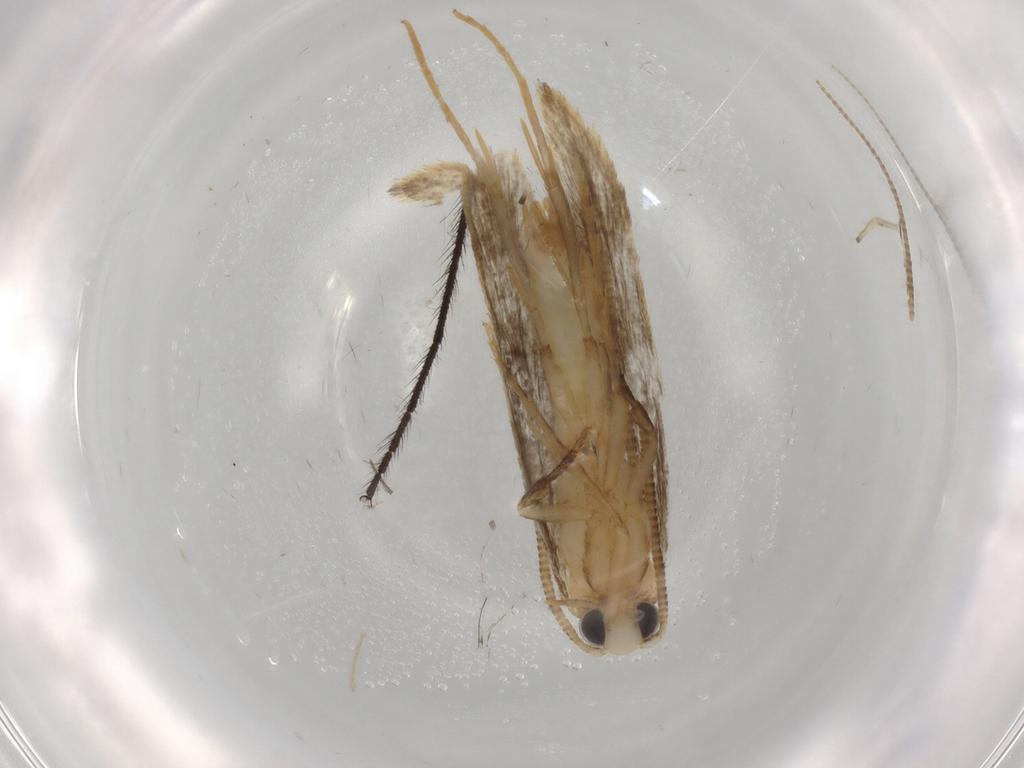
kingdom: Animalia
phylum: Arthropoda
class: Insecta
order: Lepidoptera
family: Tineidae
